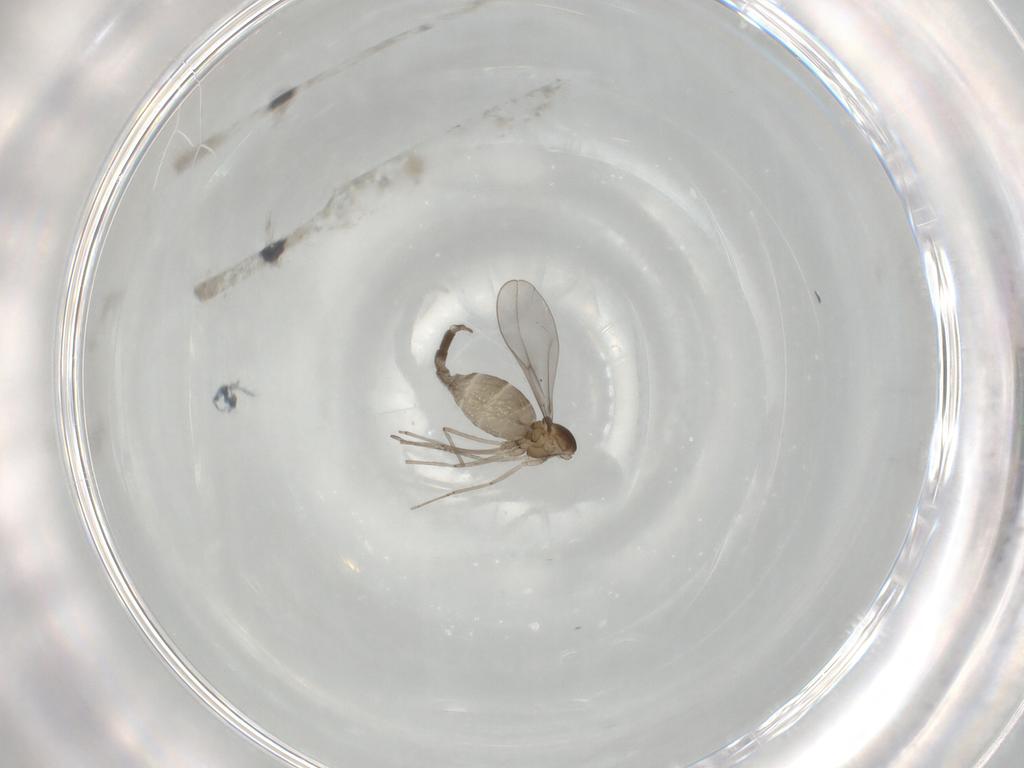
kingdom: Animalia
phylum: Arthropoda
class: Insecta
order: Diptera
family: Cecidomyiidae
